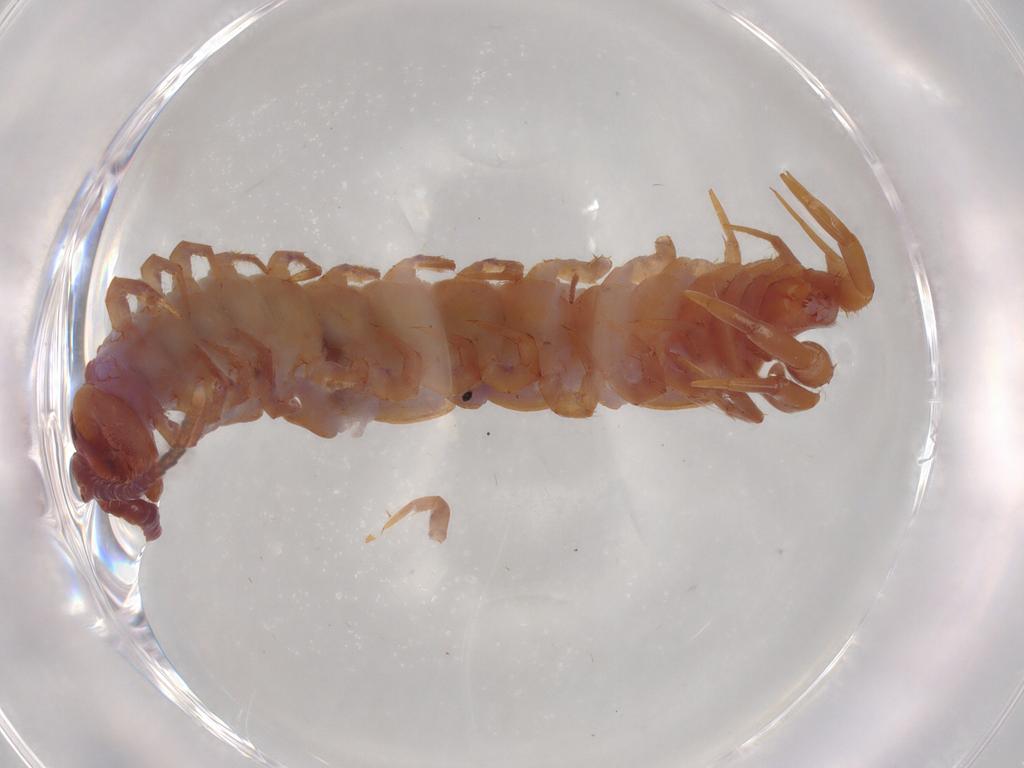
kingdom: Animalia
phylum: Arthropoda
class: Chilopoda
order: Lithobiomorpha
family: Lithobiidae
